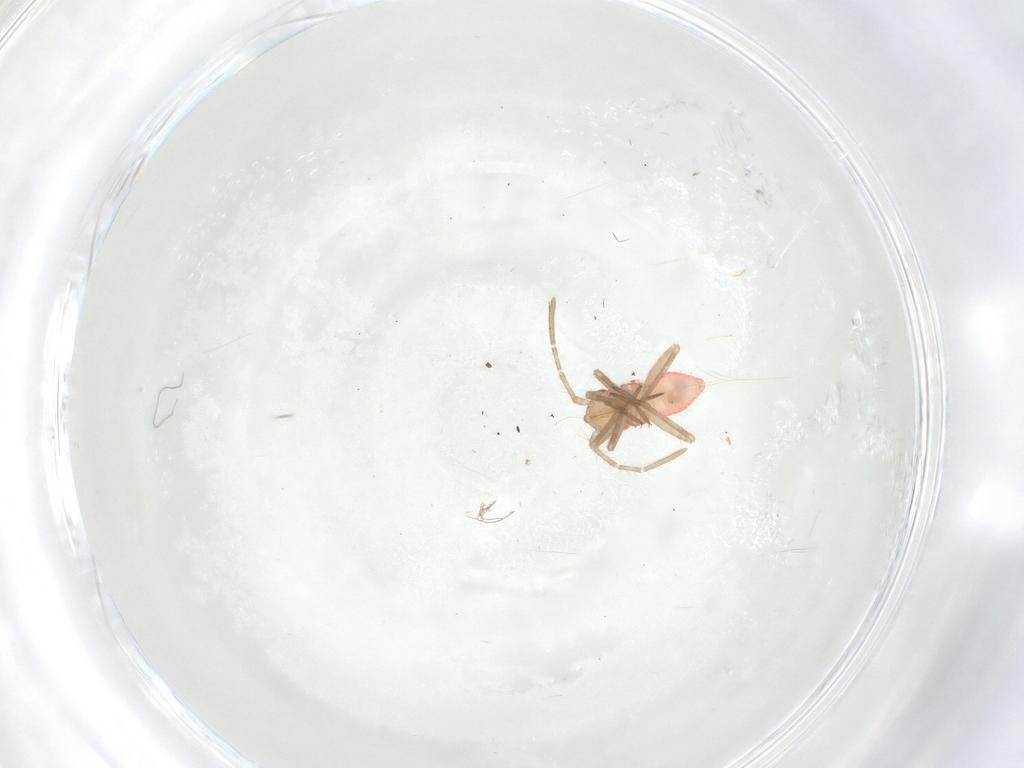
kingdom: Animalia
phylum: Arthropoda
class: Insecta
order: Hemiptera
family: Miridae
